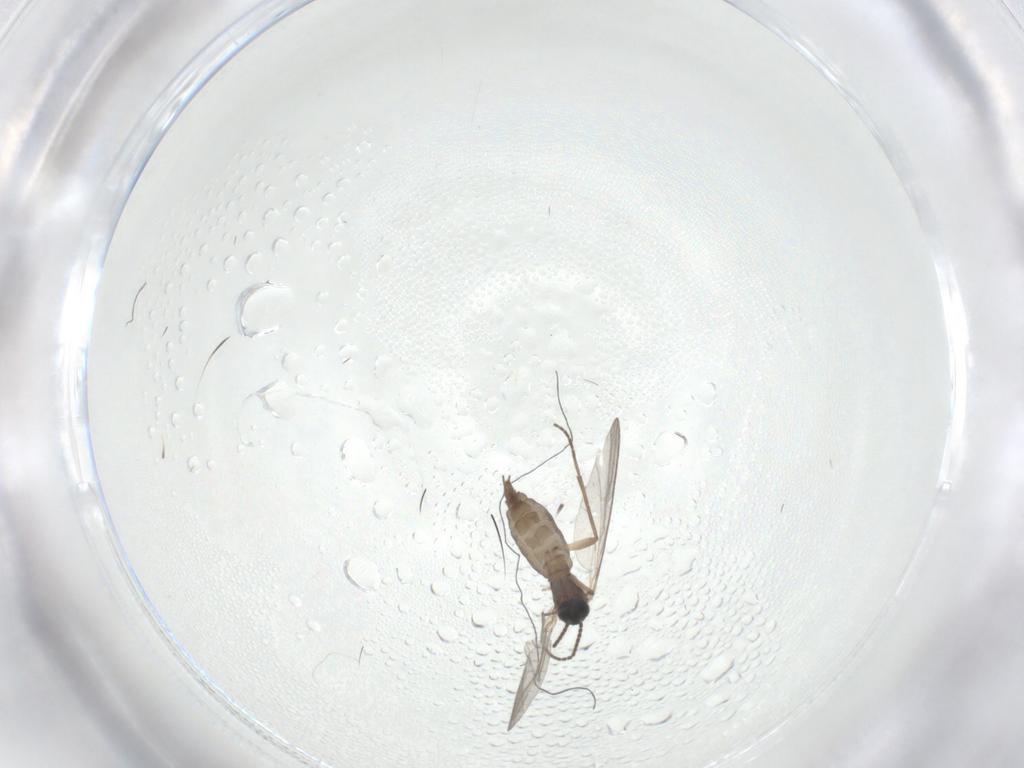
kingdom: Animalia
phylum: Arthropoda
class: Insecta
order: Diptera
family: Sciaridae
